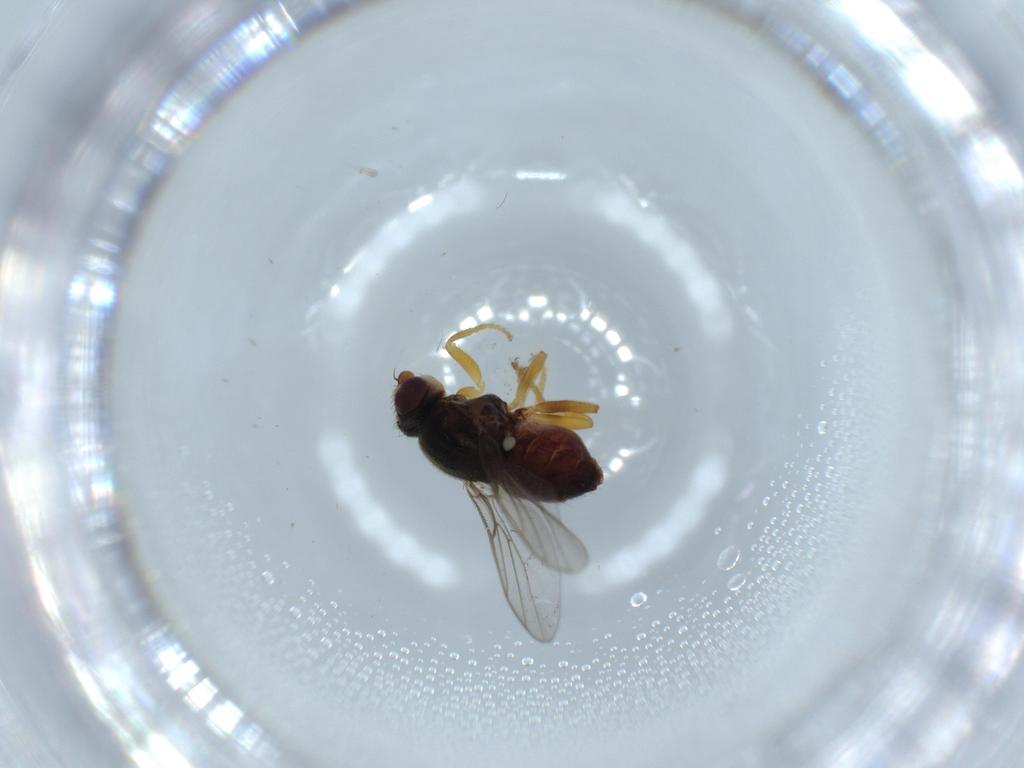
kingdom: Animalia
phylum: Arthropoda
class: Insecta
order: Diptera
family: Chloropidae
